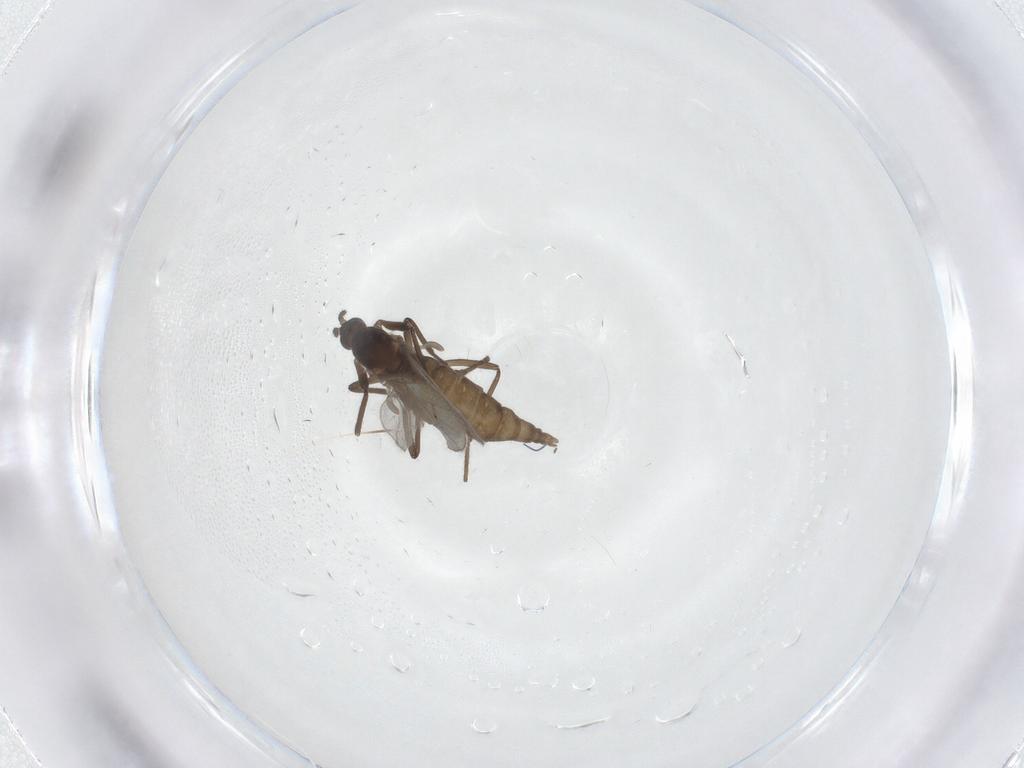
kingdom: Animalia
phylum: Arthropoda
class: Insecta
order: Diptera
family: Cecidomyiidae
